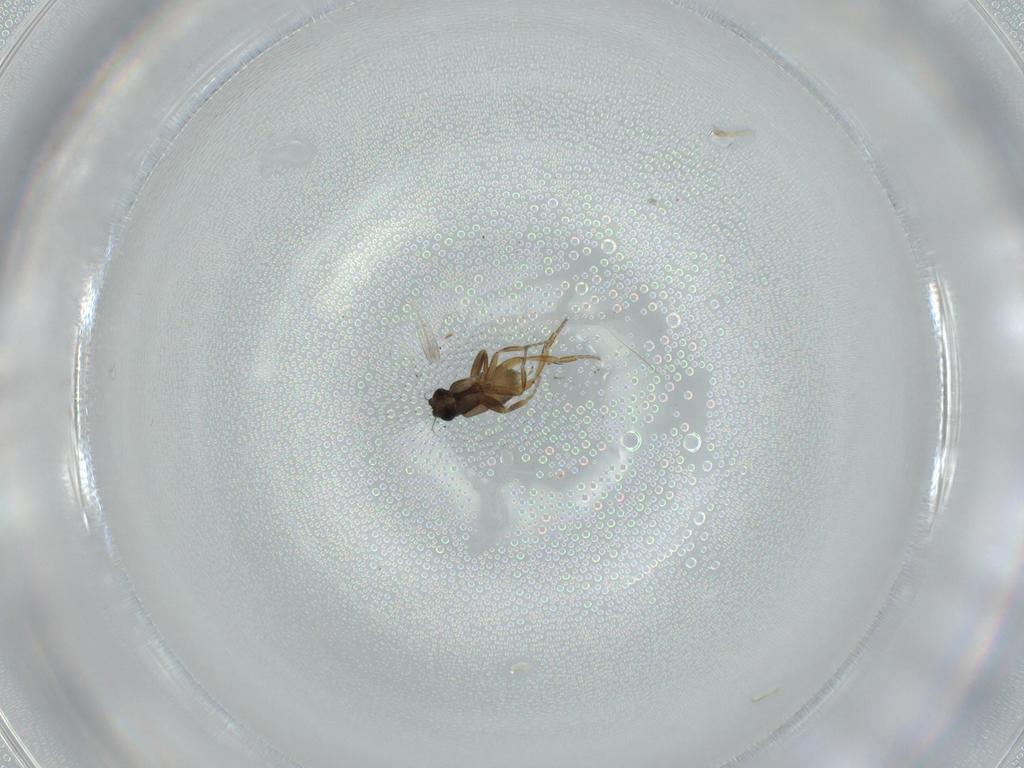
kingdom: Animalia
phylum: Arthropoda
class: Insecta
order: Diptera
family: Phoridae
